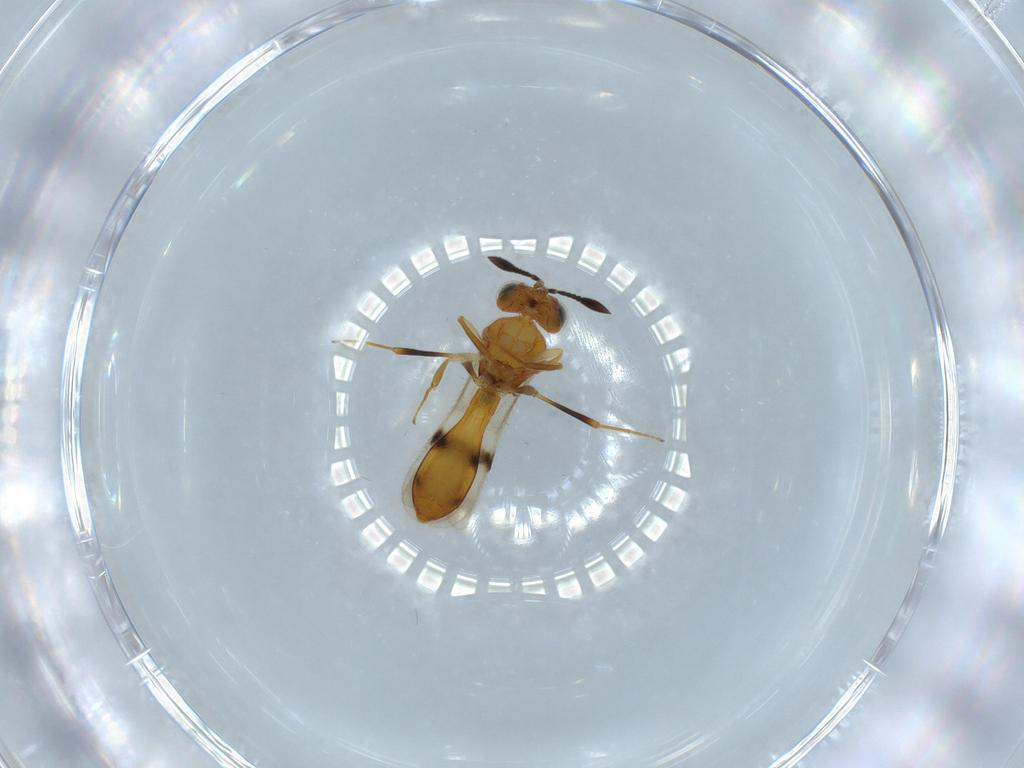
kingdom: Animalia
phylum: Arthropoda
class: Insecta
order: Hymenoptera
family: Scelionidae
